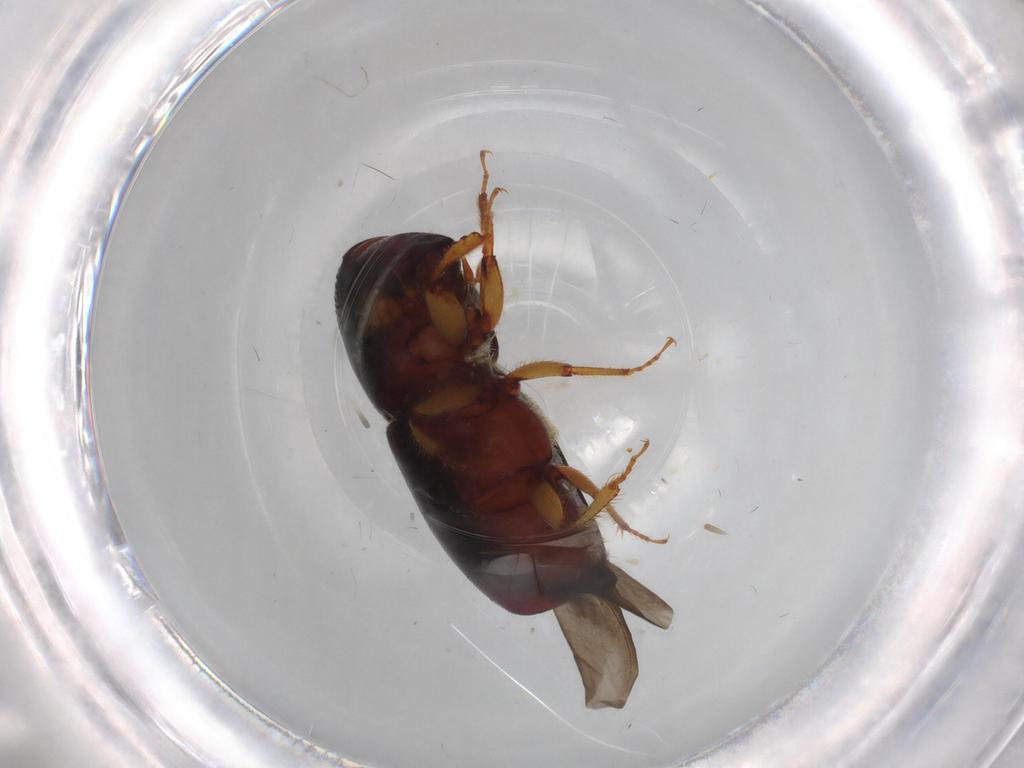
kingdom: Animalia
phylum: Arthropoda
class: Insecta
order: Coleoptera
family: Curculionidae
